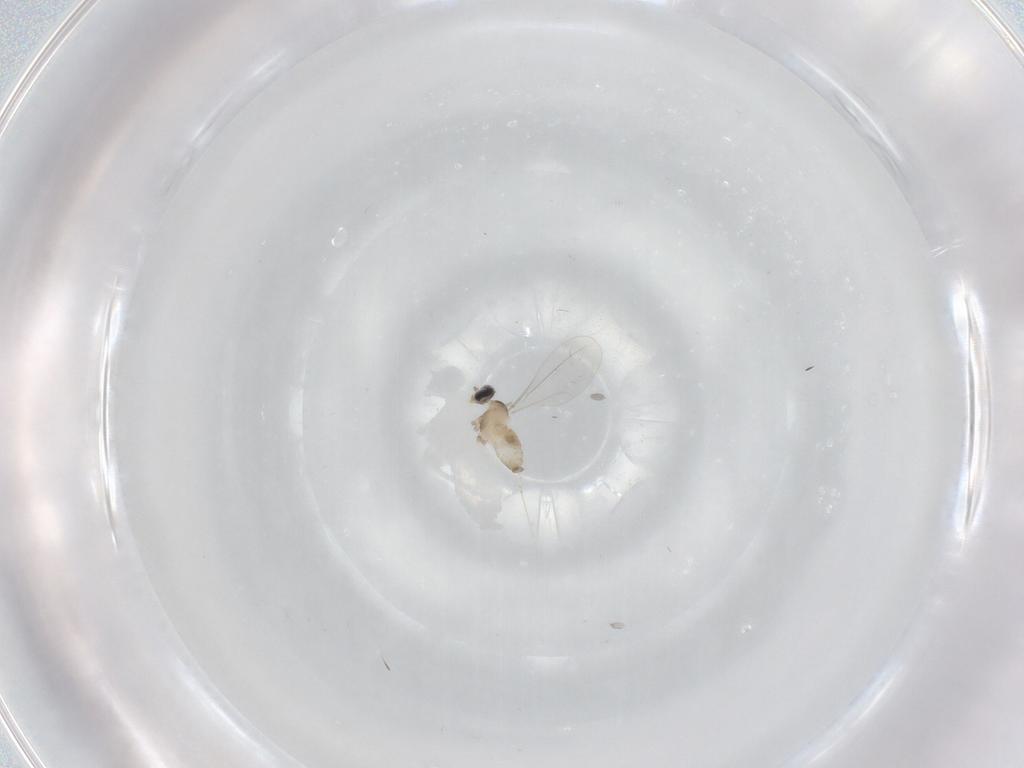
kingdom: Animalia
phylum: Arthropoda
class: Insecta
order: Diptera
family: Cecidomyiidae
